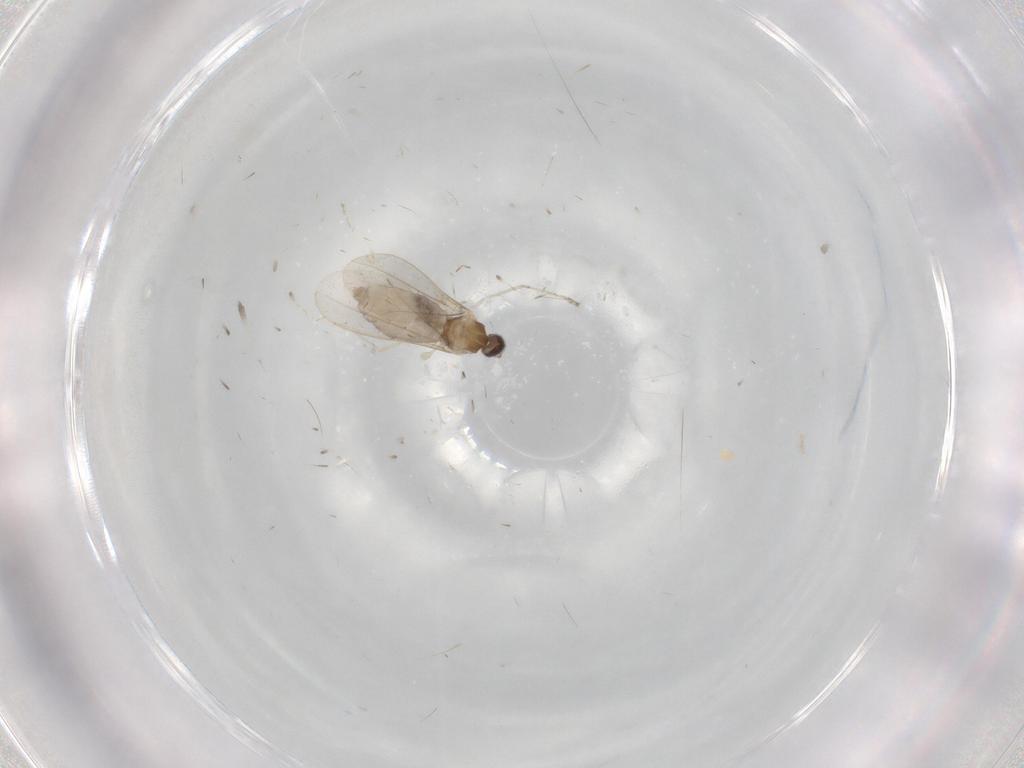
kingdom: Animalia
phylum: Arthropoda
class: Insecta
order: Diptera
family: Cecidomyiidae
